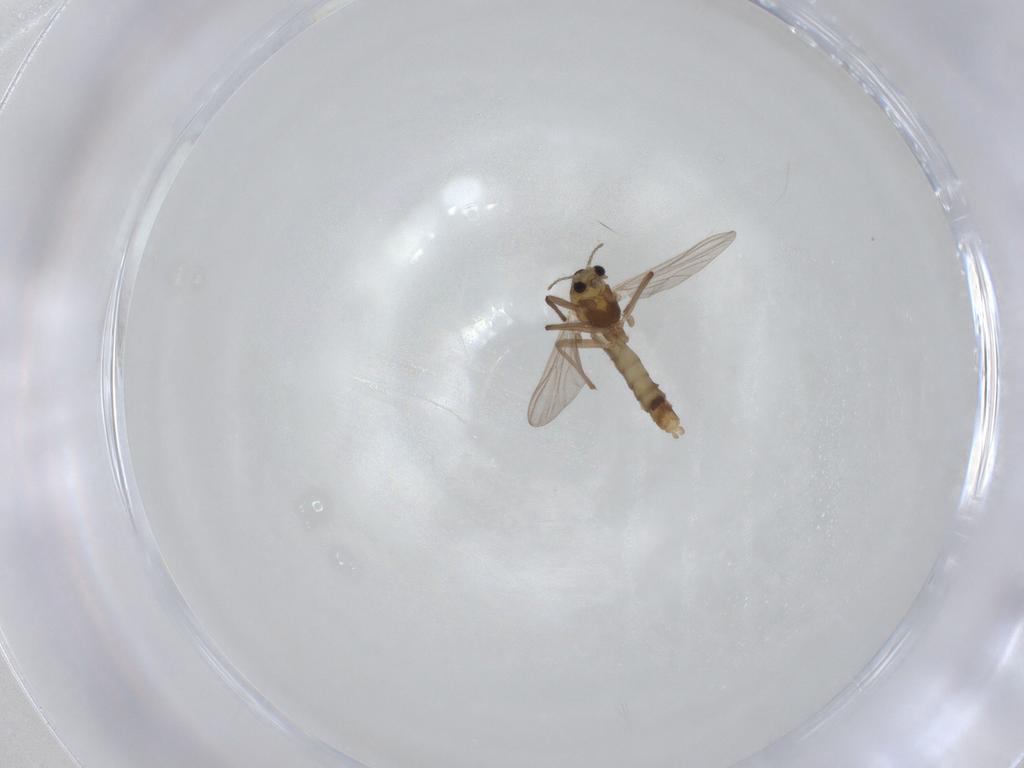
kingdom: Animalia
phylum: Arthropoda
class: Insecta
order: Diptera
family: Chironomidae
